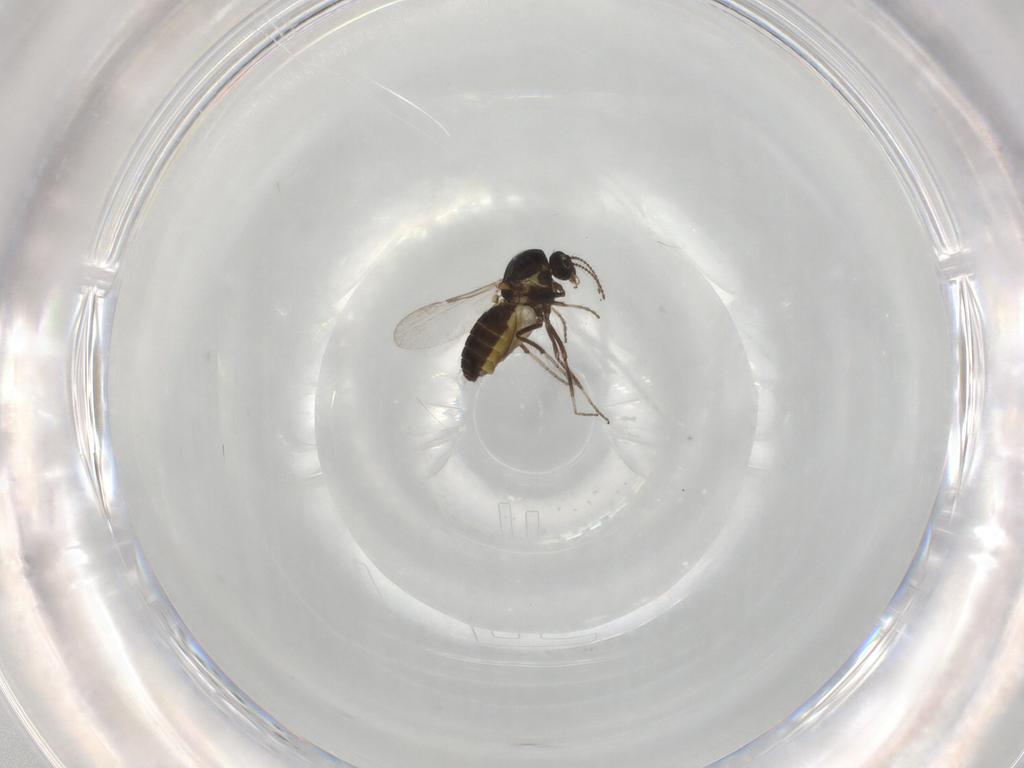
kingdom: Animalia
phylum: Arthropoda
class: Insecta
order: Diptera
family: Ceratopogonidae
